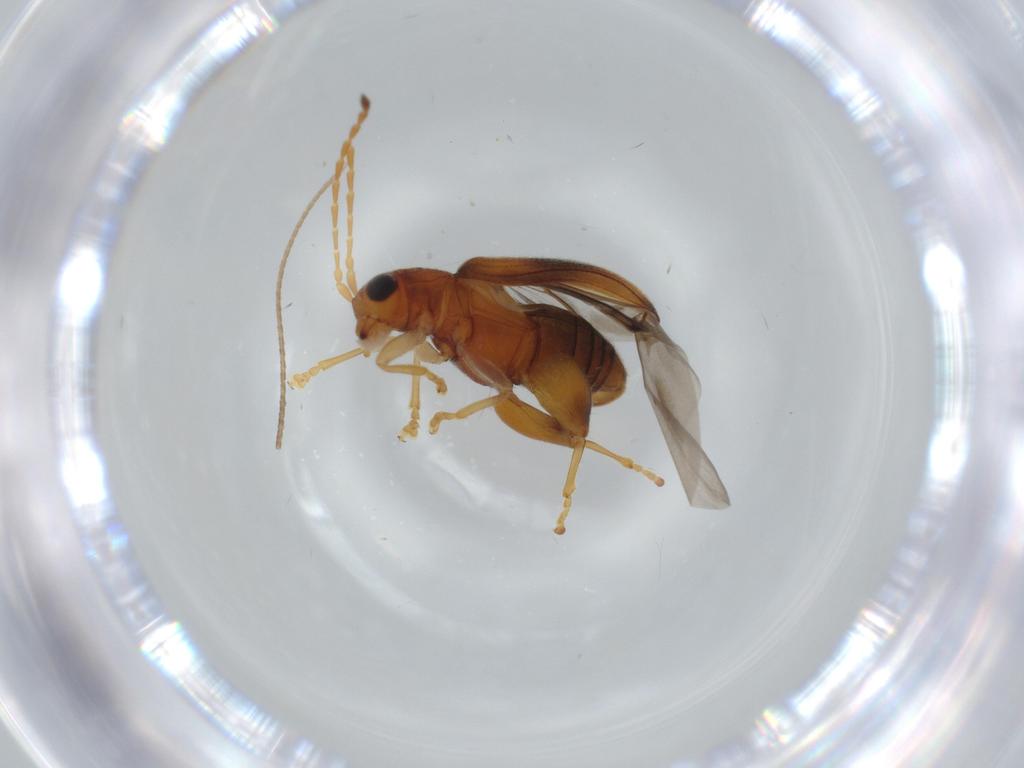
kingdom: Animalia
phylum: Arthropoda
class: Insecta
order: Coleoptera
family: Chrysomelidae
